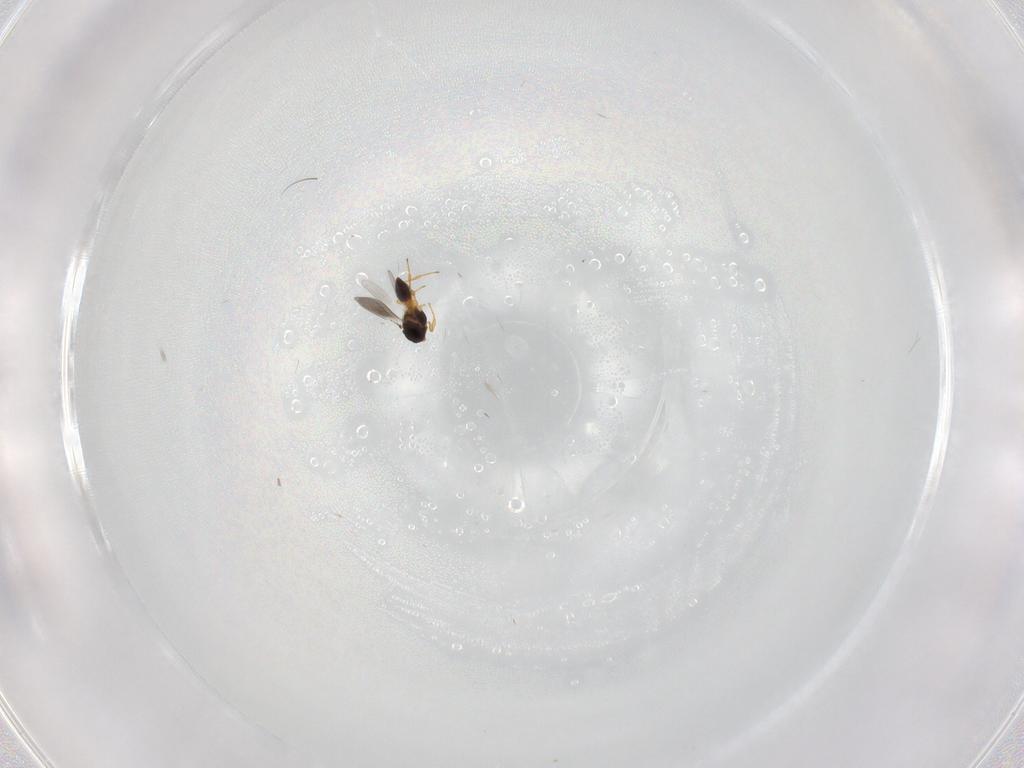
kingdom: Animalia
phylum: Arthropoda
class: Insecta
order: Hymenoptera
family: Platygastridae
